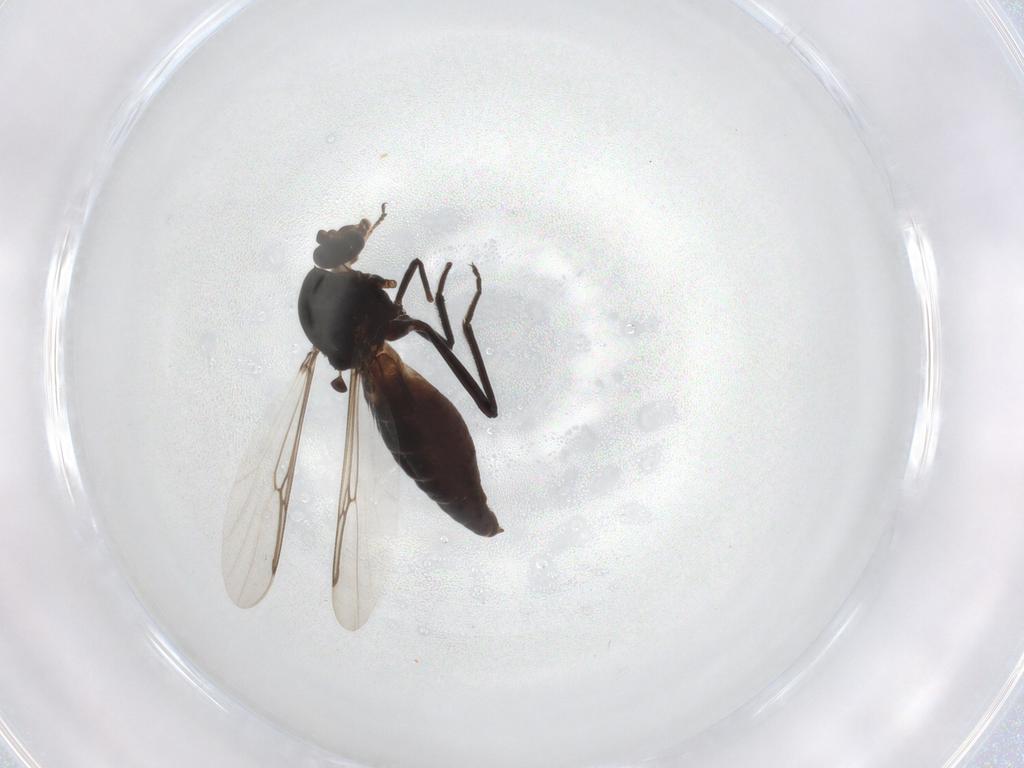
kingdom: Animalia
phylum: Arthropoda
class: Insecta
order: Diptera
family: Ceratopogonidae
